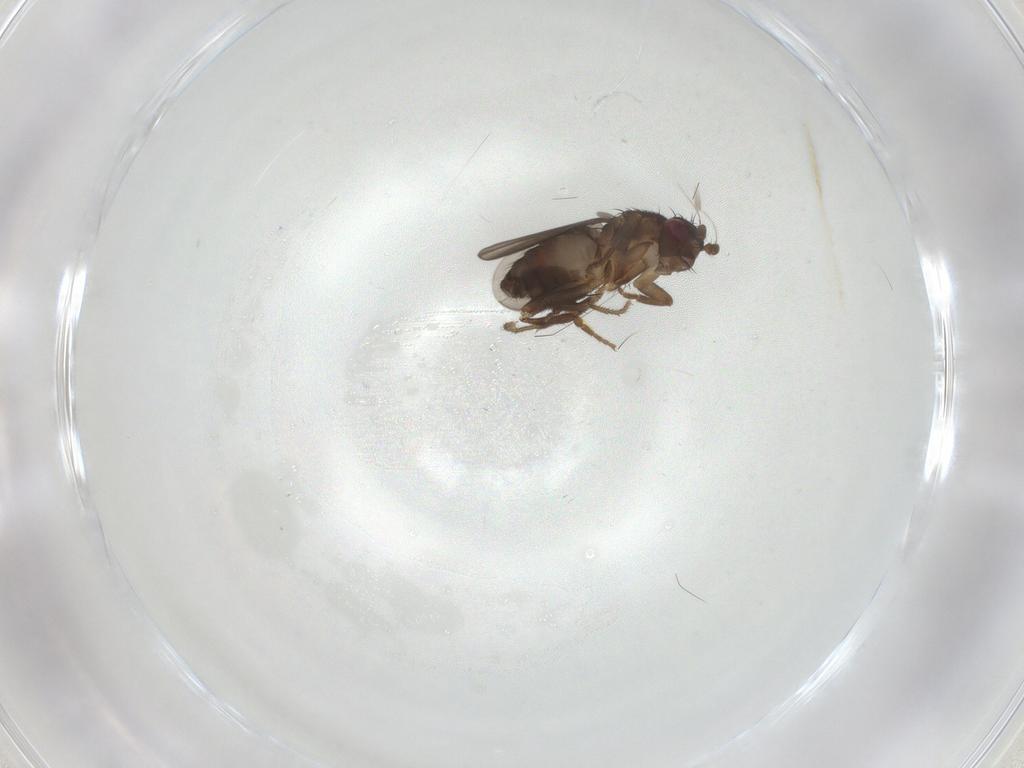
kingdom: Animalia
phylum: Arthropoda
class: Insecta
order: Diptera
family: Sphaeroceridae
